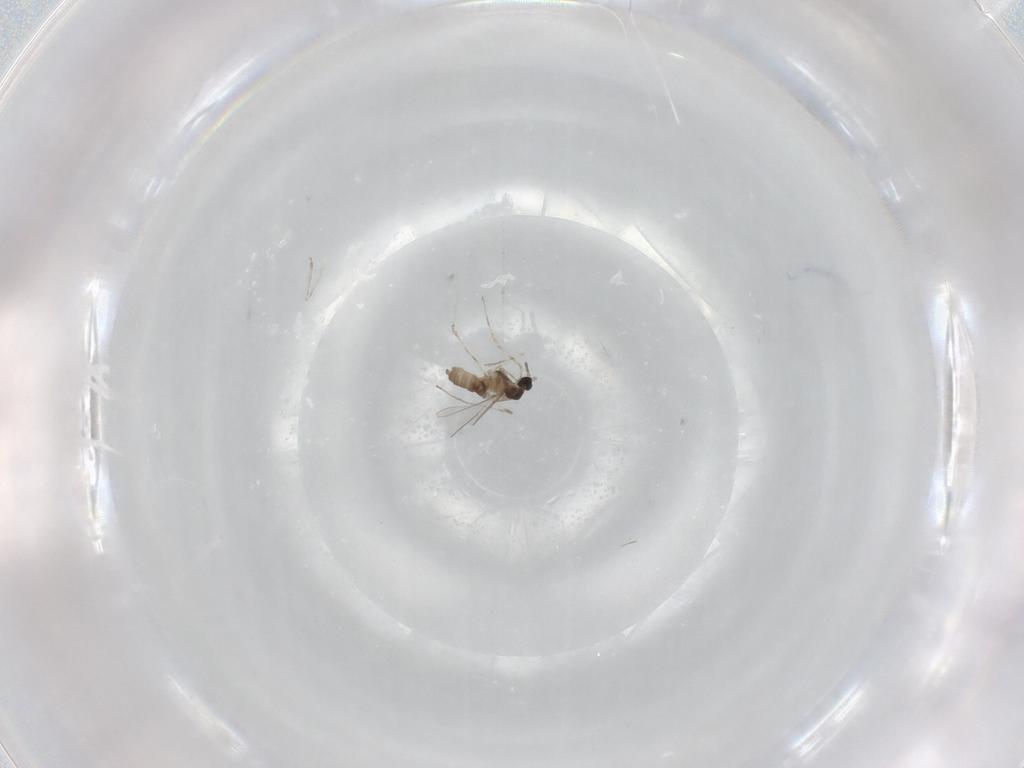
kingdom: Animalia
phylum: Arthropoda
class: Insecta
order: Diptera
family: Cecidomyiidae
